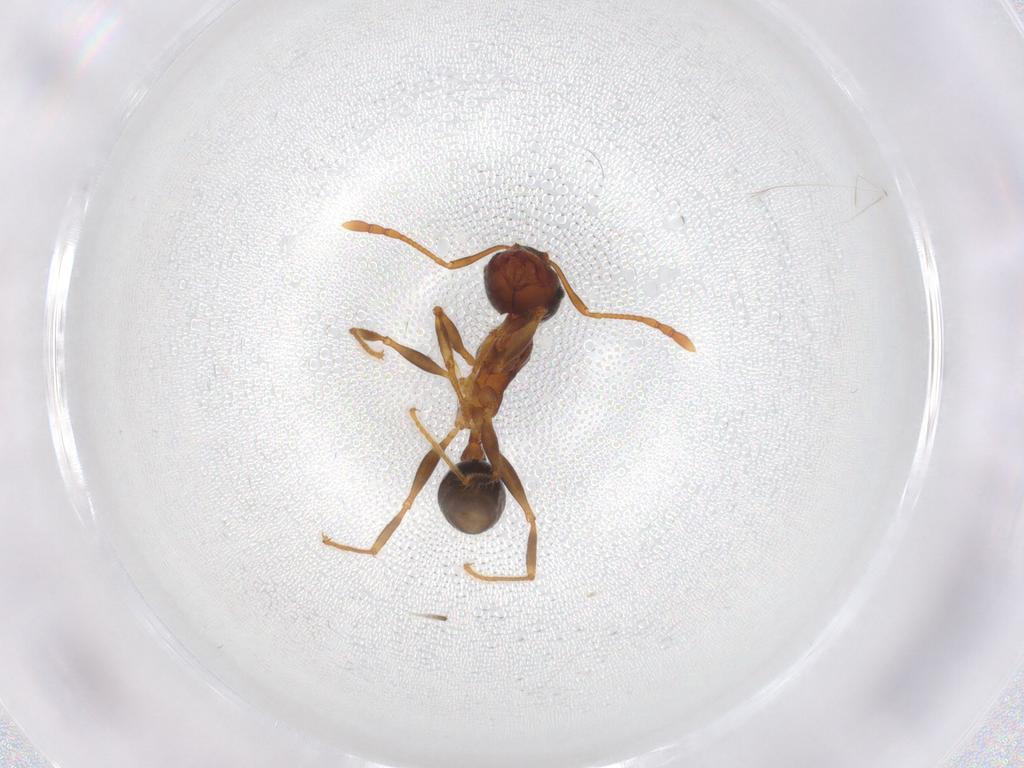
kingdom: Animalia
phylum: Arthropoda
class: Insecta
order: Hymenoptera
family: Formicidae
